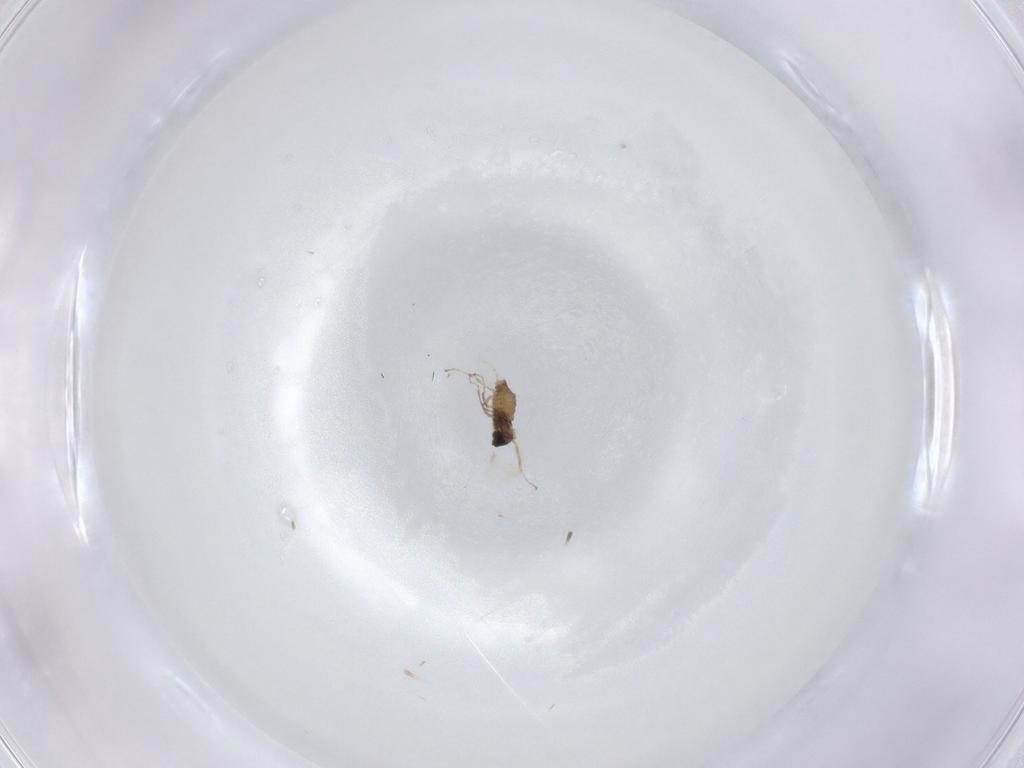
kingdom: Animalia
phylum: Arthropoda
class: Insecta
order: Diptera
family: Cecidomyiidae
